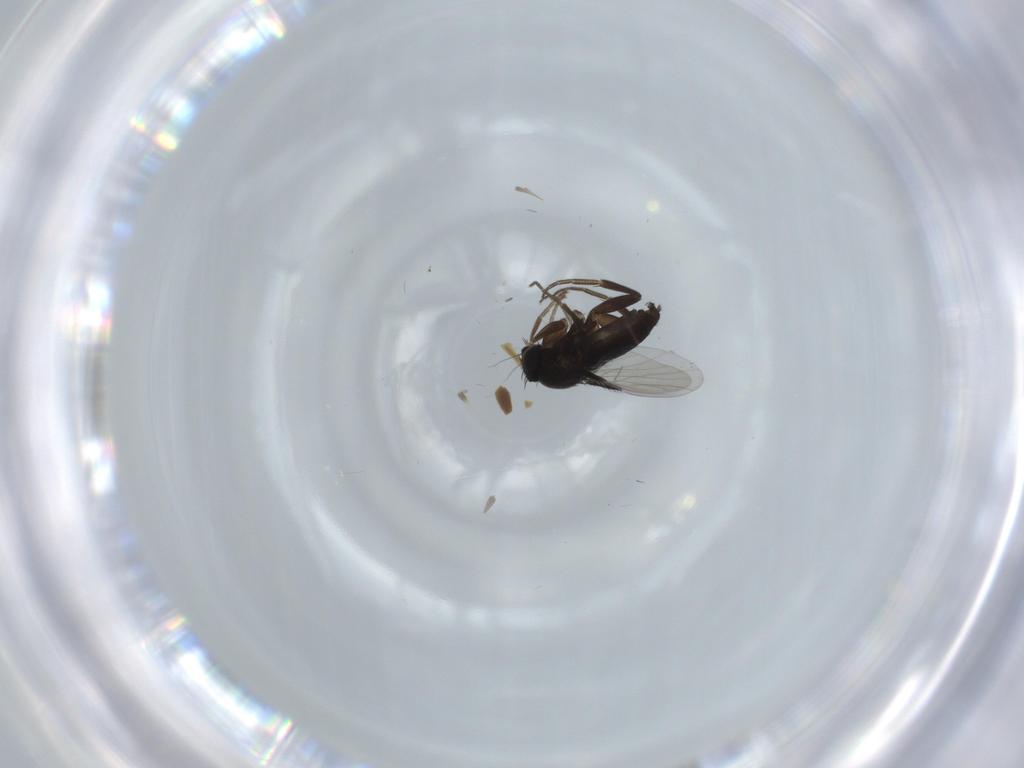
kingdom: Animalia
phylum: Arthropoda
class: Insecta
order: Diptera
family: Phoridae
